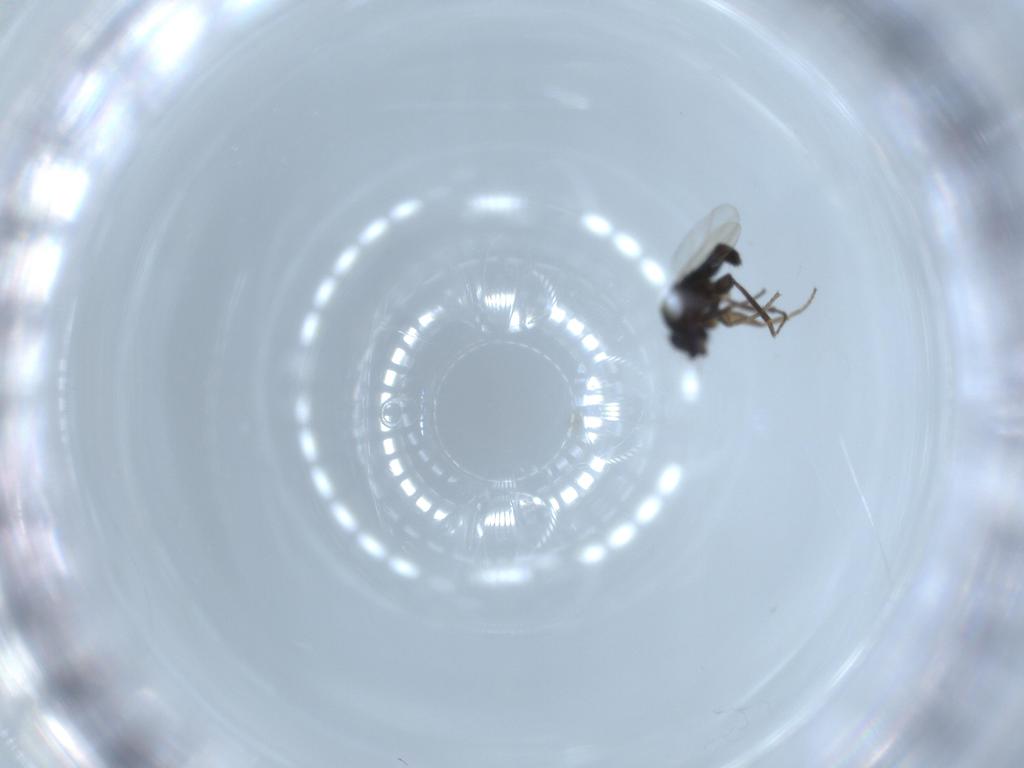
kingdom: Animalia
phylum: Arthropoda
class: Insecta
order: Diptera
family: Phoridae
